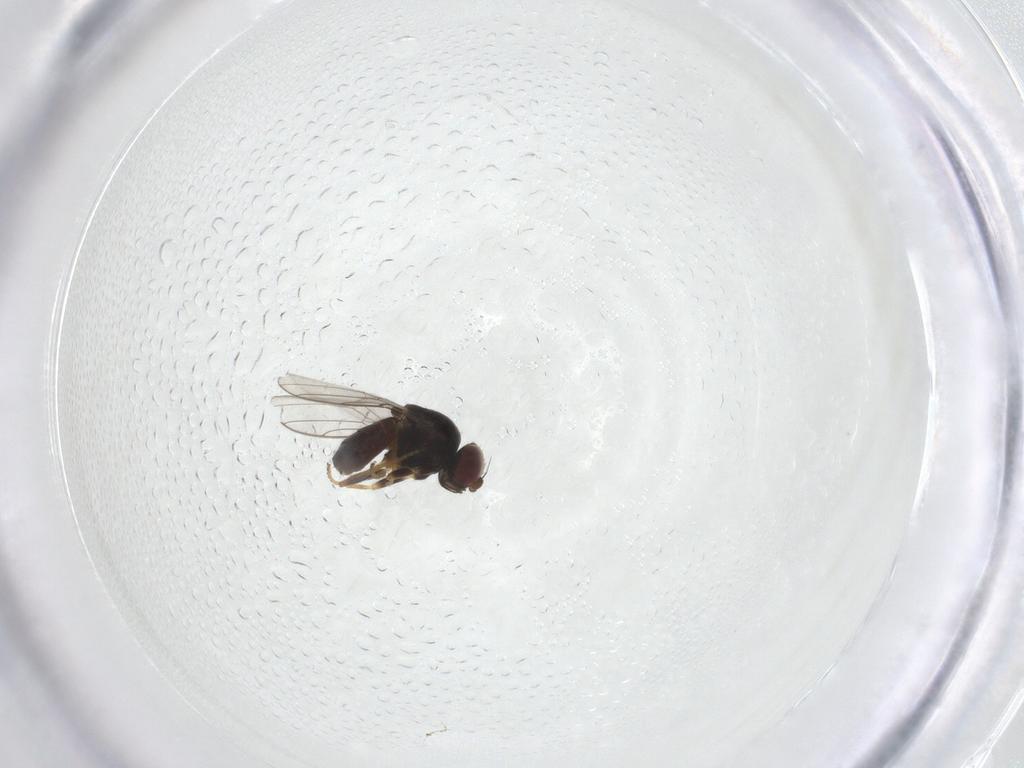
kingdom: Animalia
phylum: Arthropoda
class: Insecta
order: Diptera
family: Chloropidae
